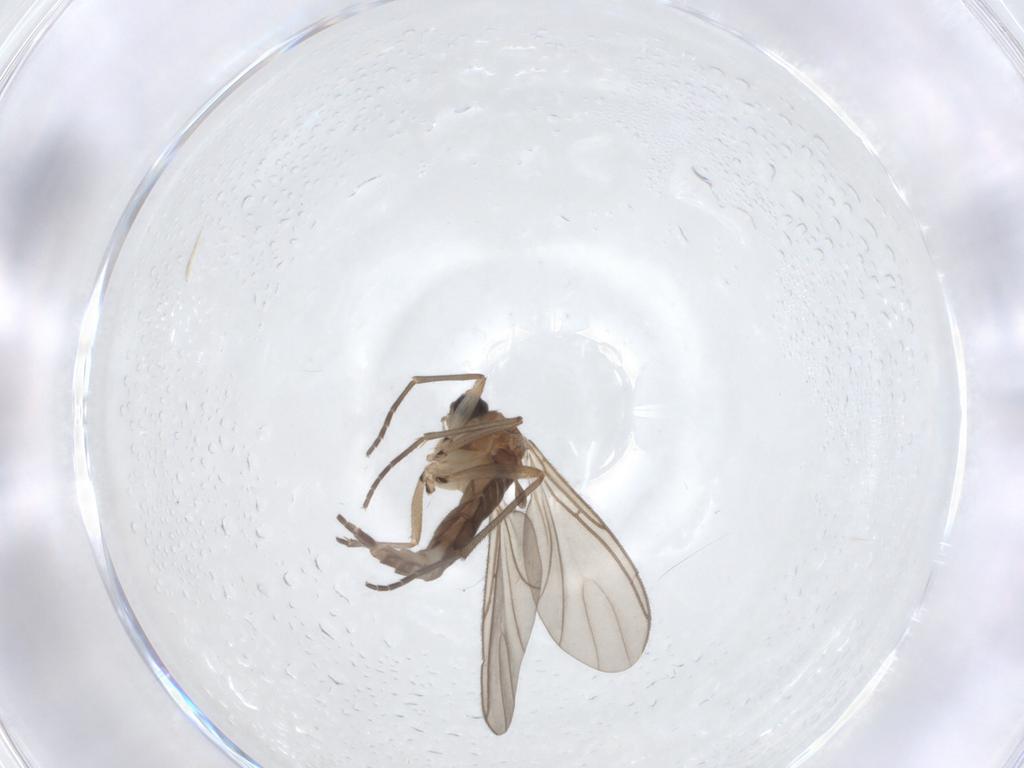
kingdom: Animalia
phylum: Arthropoda
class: Insecta
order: Diptera
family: Sciaridae
